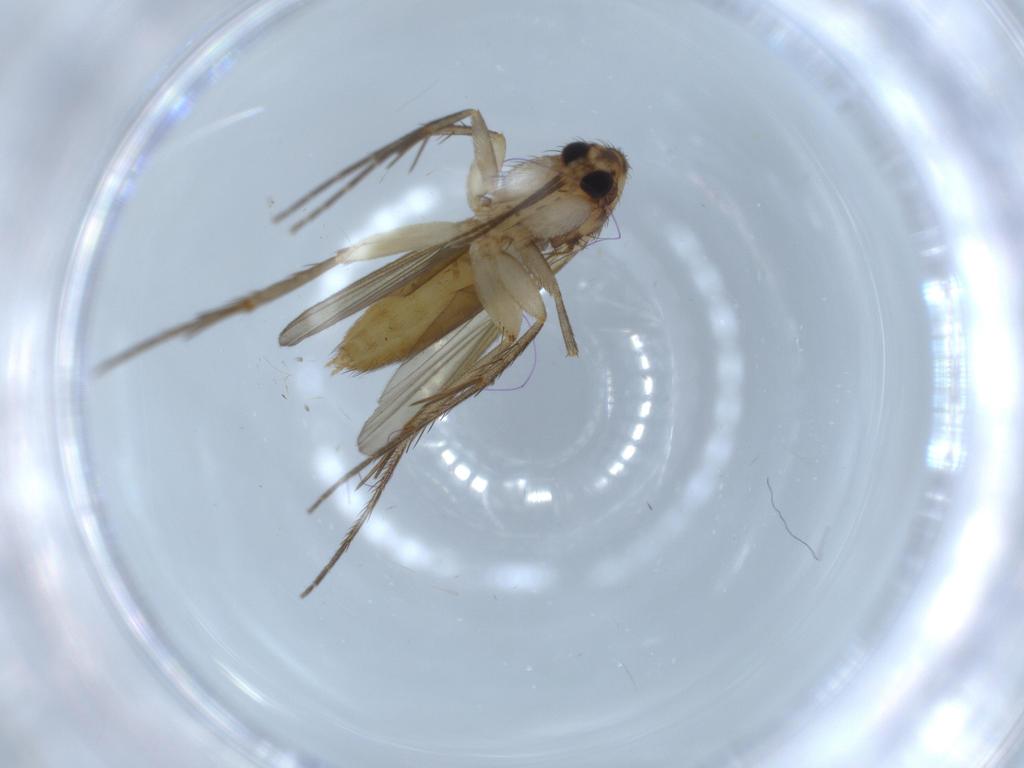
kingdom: Animalia
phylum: Arthropoda
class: Insecta
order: Diptera
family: Mycetophilidae
